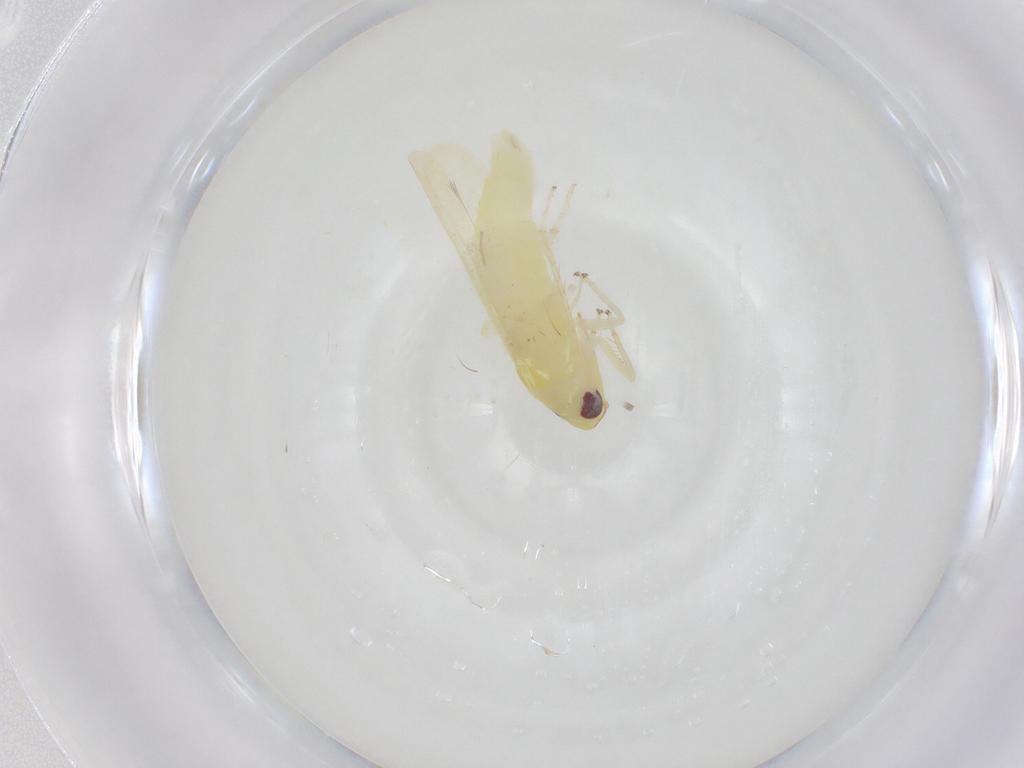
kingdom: Animalia
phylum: Arthropoda
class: Insecta
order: Hemiptera
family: Cicadellidae
